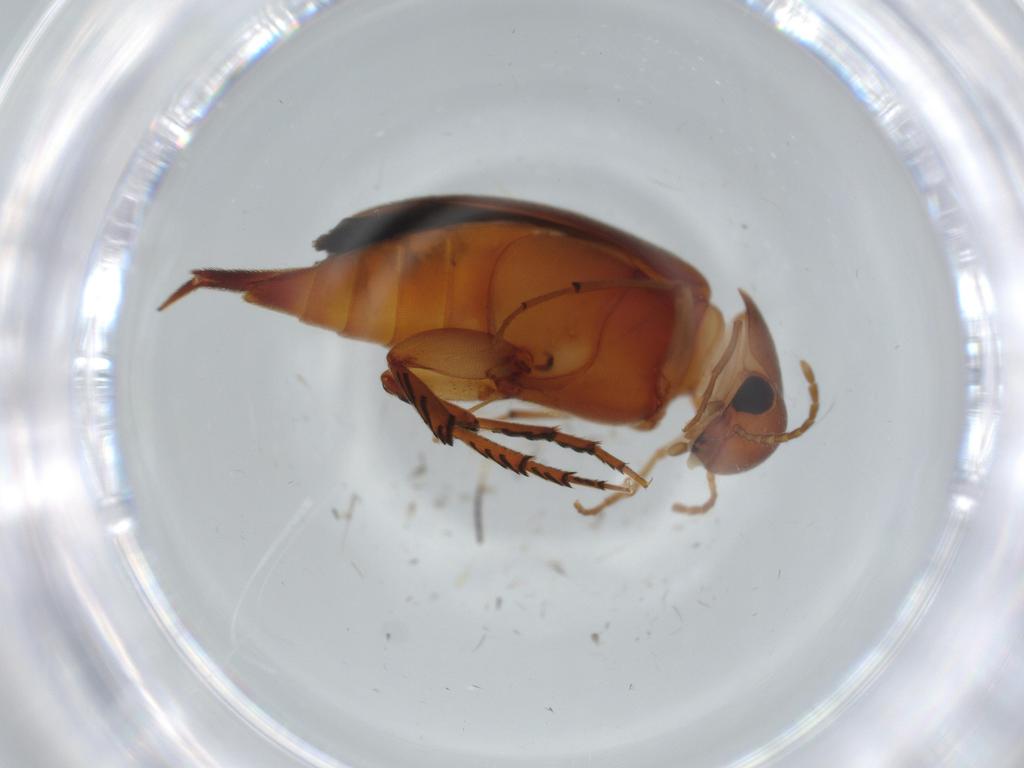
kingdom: Animalia
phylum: Arthropoda
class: Insecta
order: Coleoptera
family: Mordellidae
